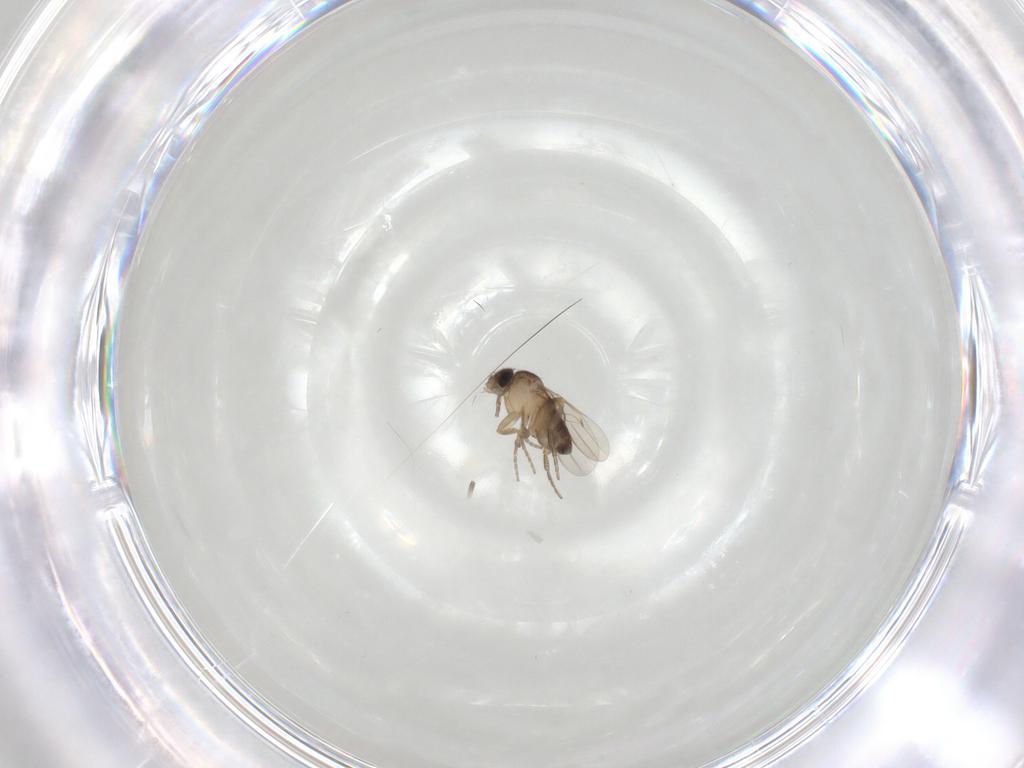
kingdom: Animalia
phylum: Arthropoda
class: Insecta
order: Diptera
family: Phoridae
